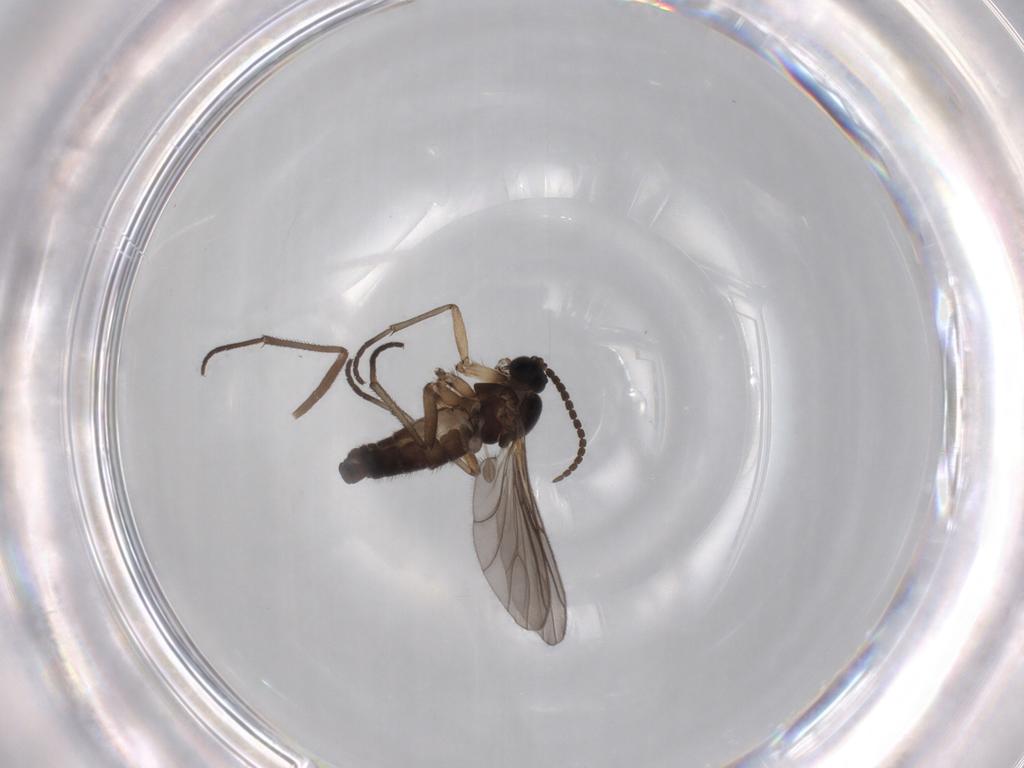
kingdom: Animalia
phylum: Arthropoda
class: Insecta
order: Diptera
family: Sciaridae
